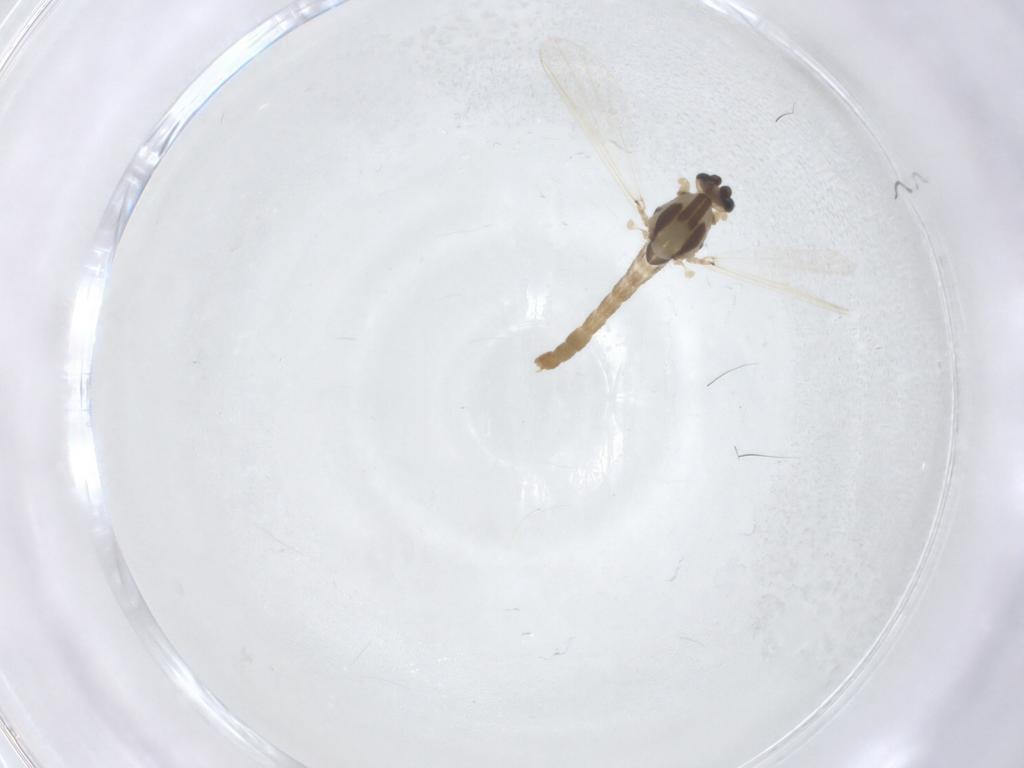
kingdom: Animalia
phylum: Arthropoda
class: Insecta
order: Diptera
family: Chironomidae
